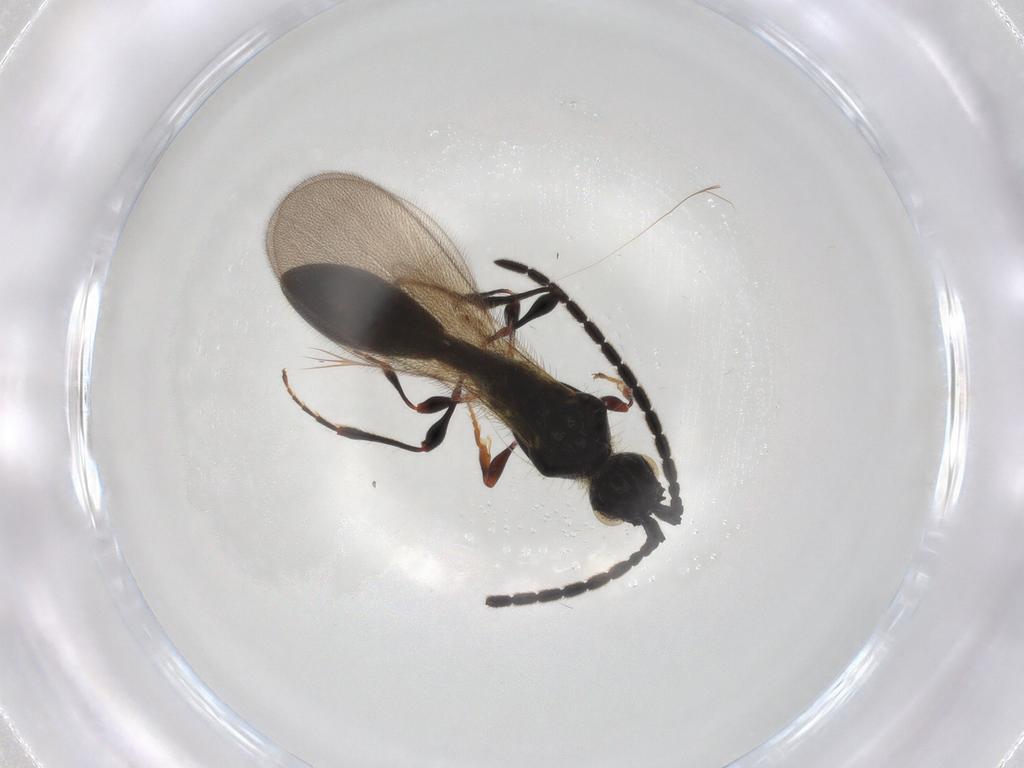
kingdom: Animalia
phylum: Arthropoda
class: Insecta
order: Hymenoptera
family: Diapriidae
